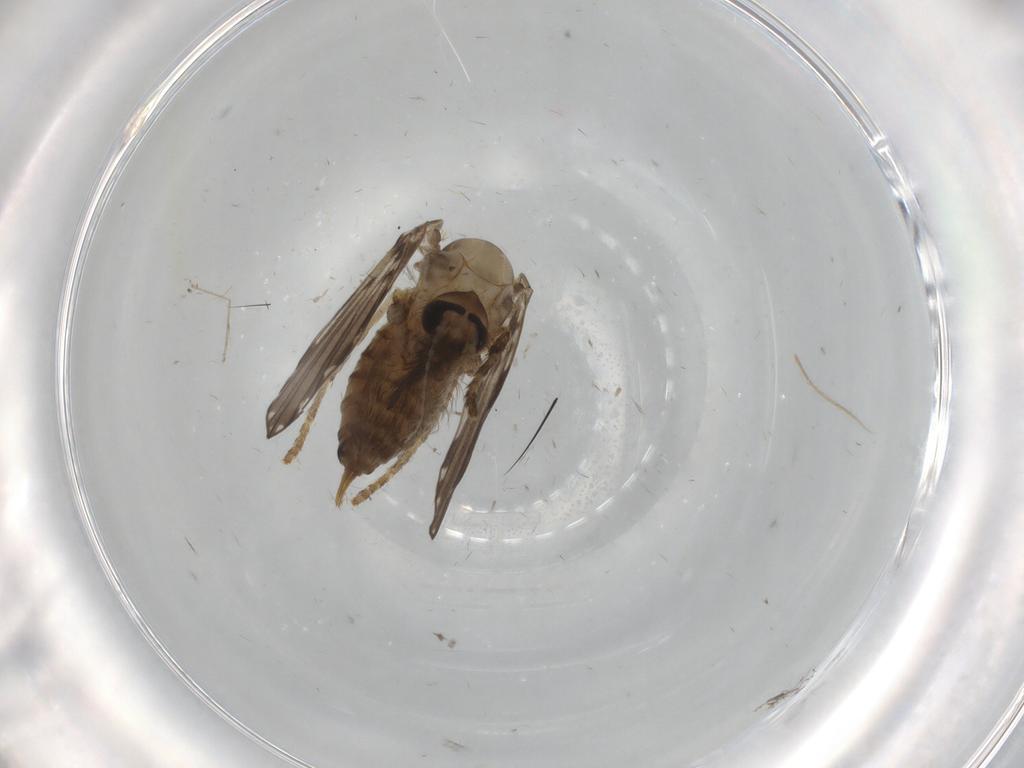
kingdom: Animalia
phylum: Arthropoda
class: Insecta
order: Diptera
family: Psychodidae
